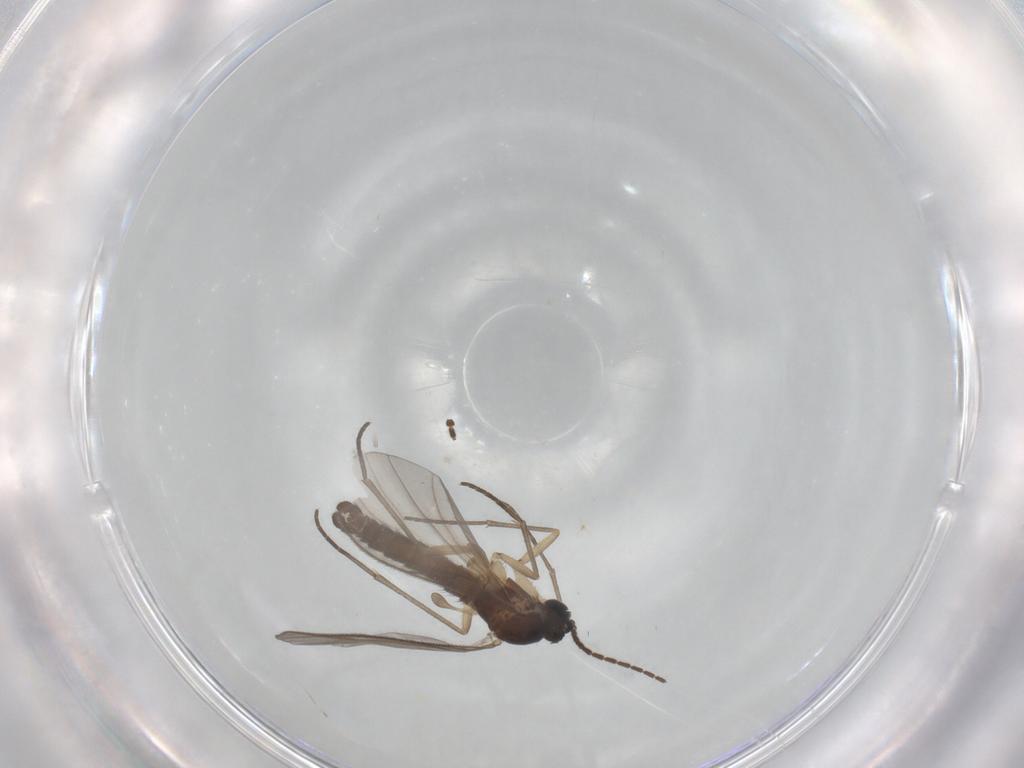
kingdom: Animalia
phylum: Arthropoda
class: Insecta
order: Diptera
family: Sciaridae
